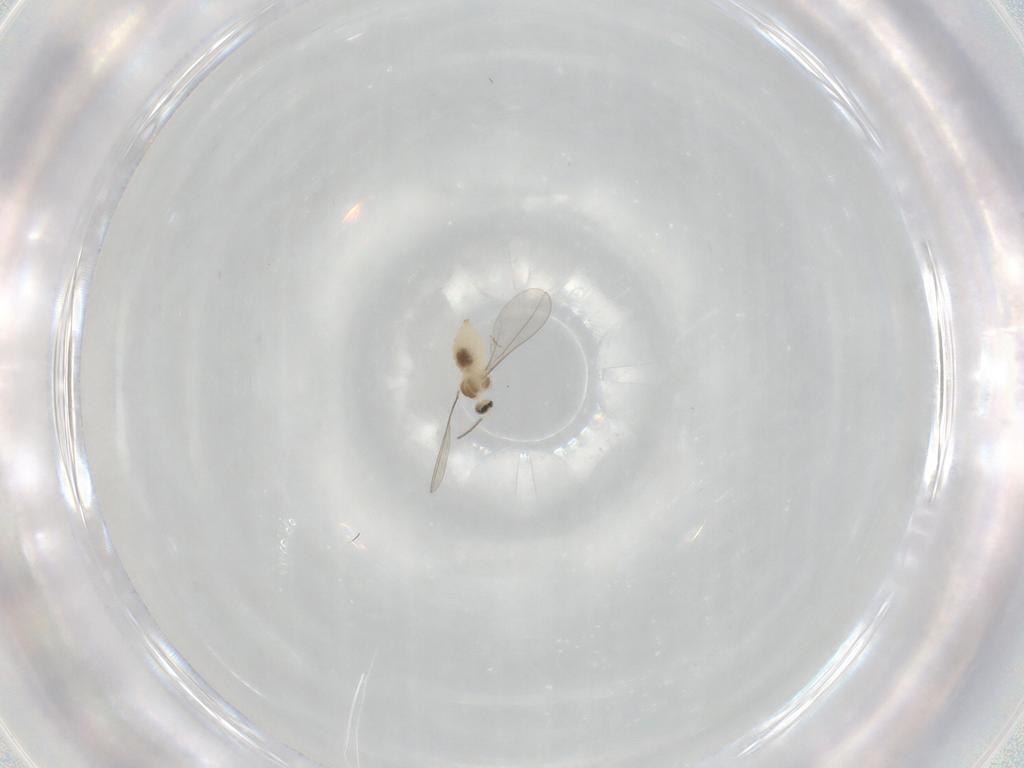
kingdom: Animalia
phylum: Arthropoda
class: Insecta
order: Diptera
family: Cecidomyiidae
